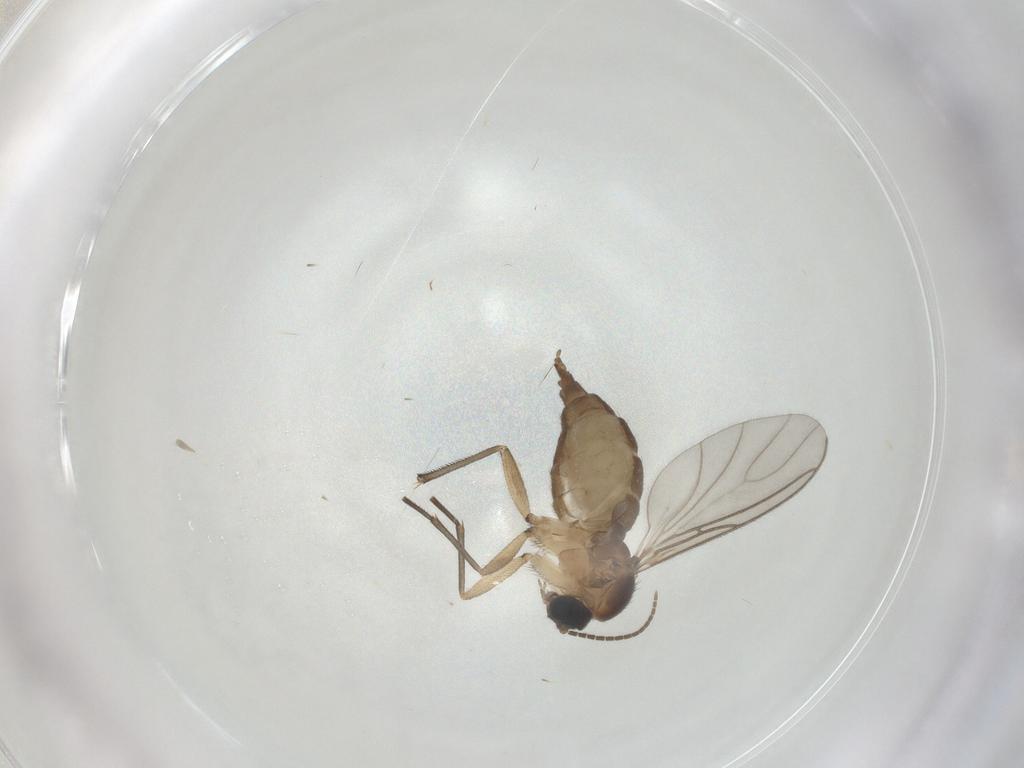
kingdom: Animalia
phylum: Arthropoda
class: Insecta
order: Diptera
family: Sciaridae
